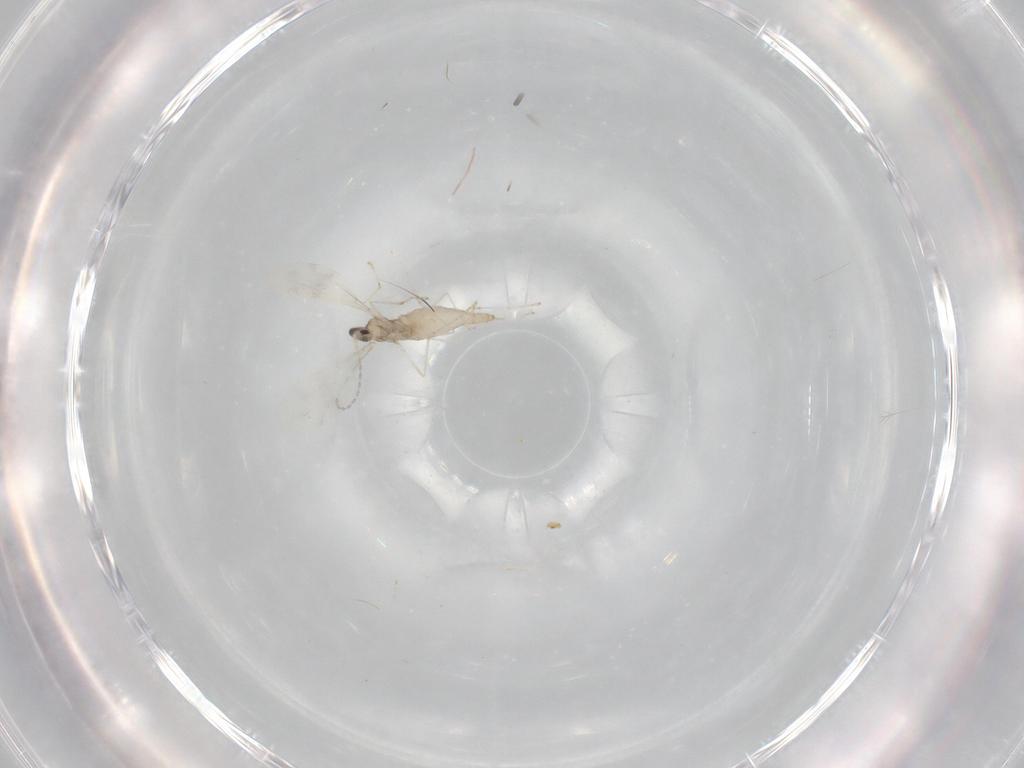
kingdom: Animalia
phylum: Arthropoda
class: Insecta
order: Diptera
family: Cecidomyiidae
